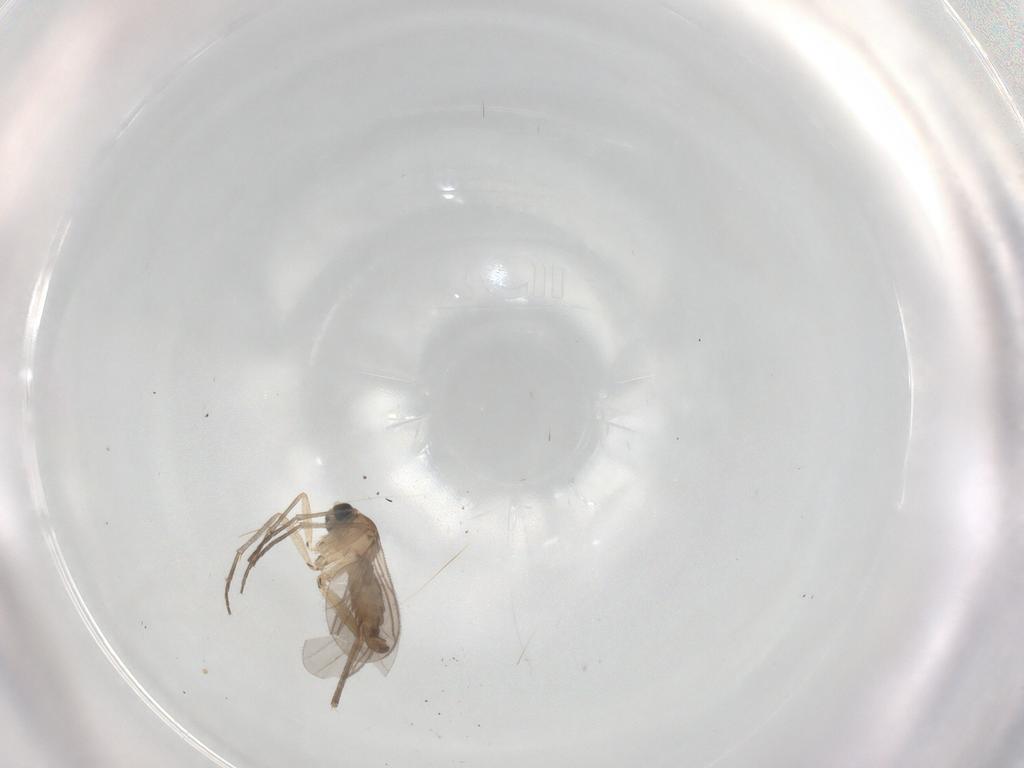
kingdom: Animalia
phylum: Arthropoda
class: Insecta
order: Diptera
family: Sciaridae
